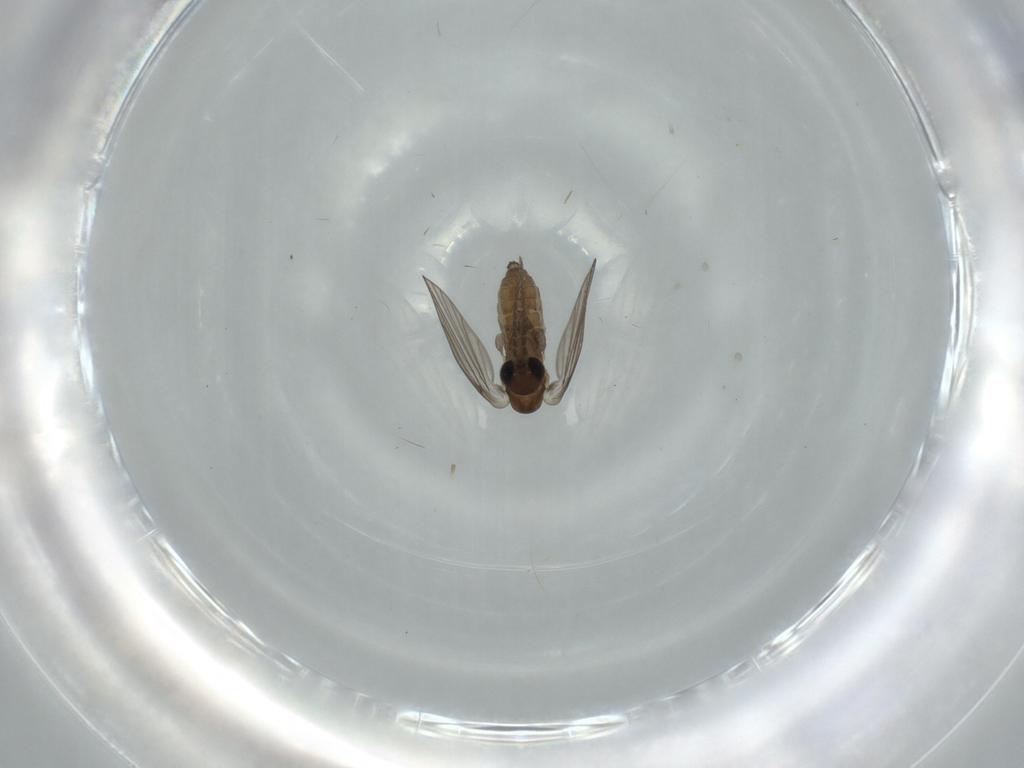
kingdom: Animalia
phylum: Arthropoda
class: Insecta
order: Diptera
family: Psychodidae
